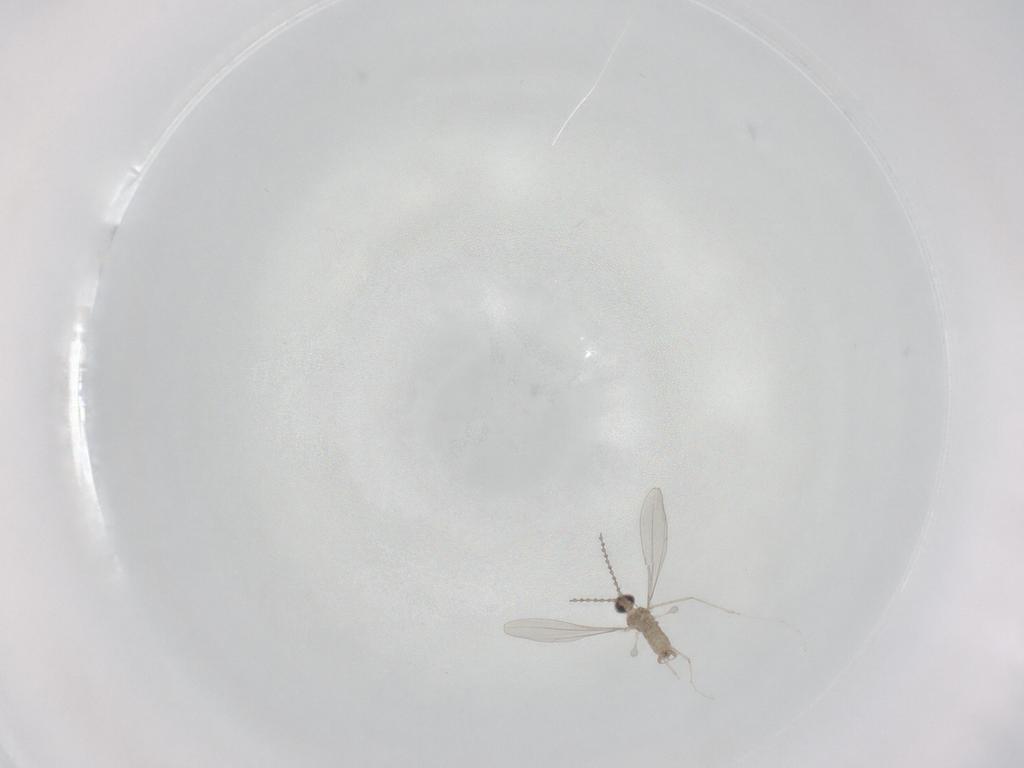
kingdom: Animalia
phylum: Arthropoda
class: Insecta
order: Diptera
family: Cecidomyiidae
